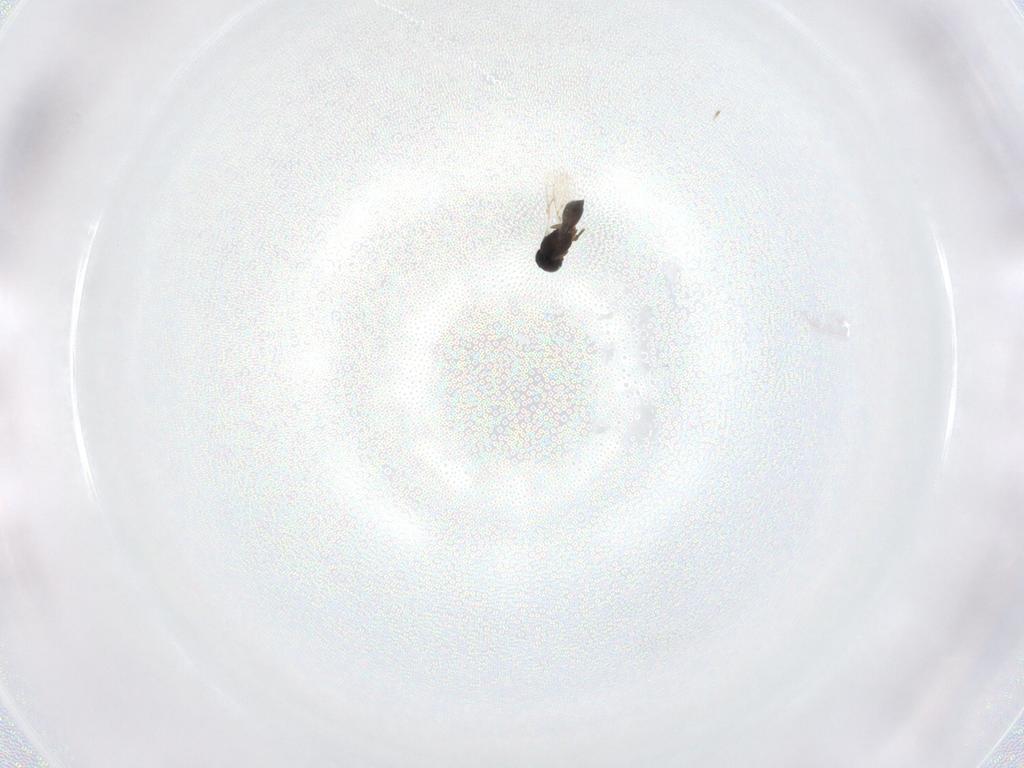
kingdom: Animalia
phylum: Arthropoda
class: Insecta
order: Hymenoptera
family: Scelionidae
